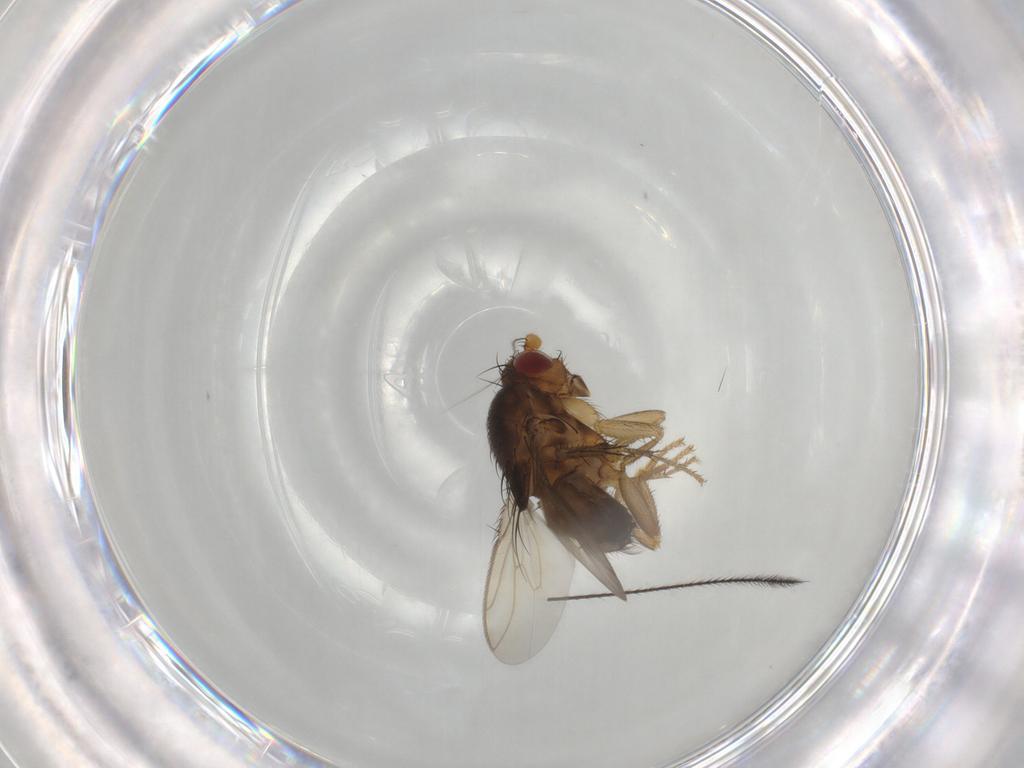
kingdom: Animalia
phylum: Arthropoda
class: Insecta
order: Diptera
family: Sphaeroceridae
